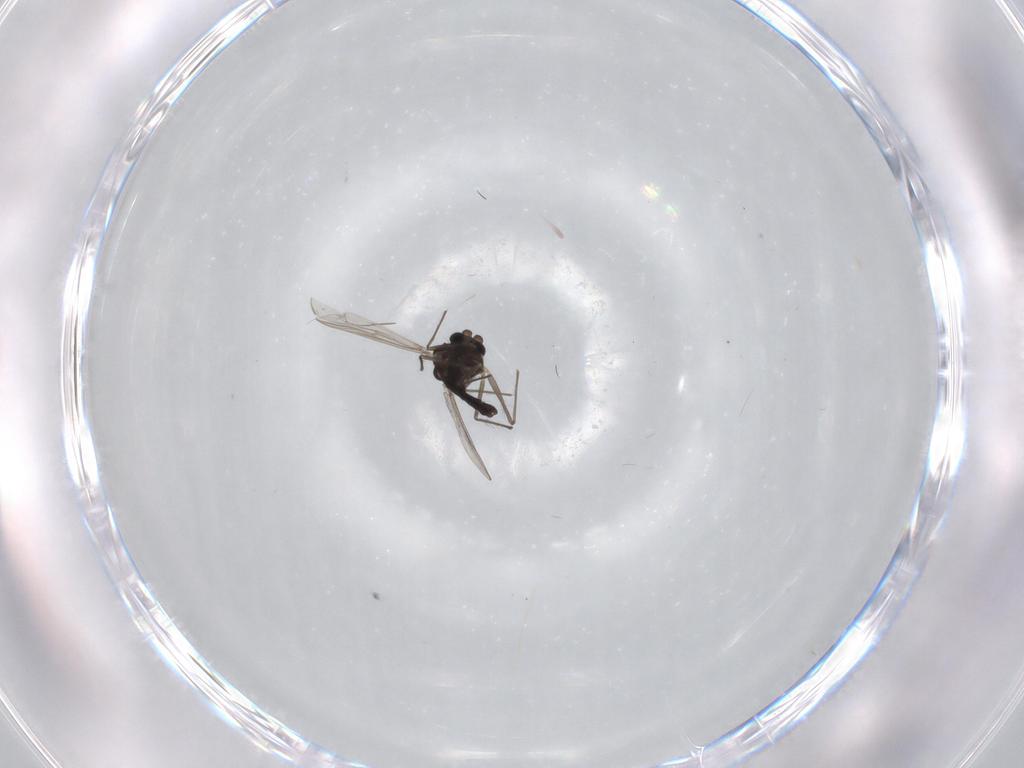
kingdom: Animalia
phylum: Arthropoda
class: Insecta
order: Diptera
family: Chironomidae
